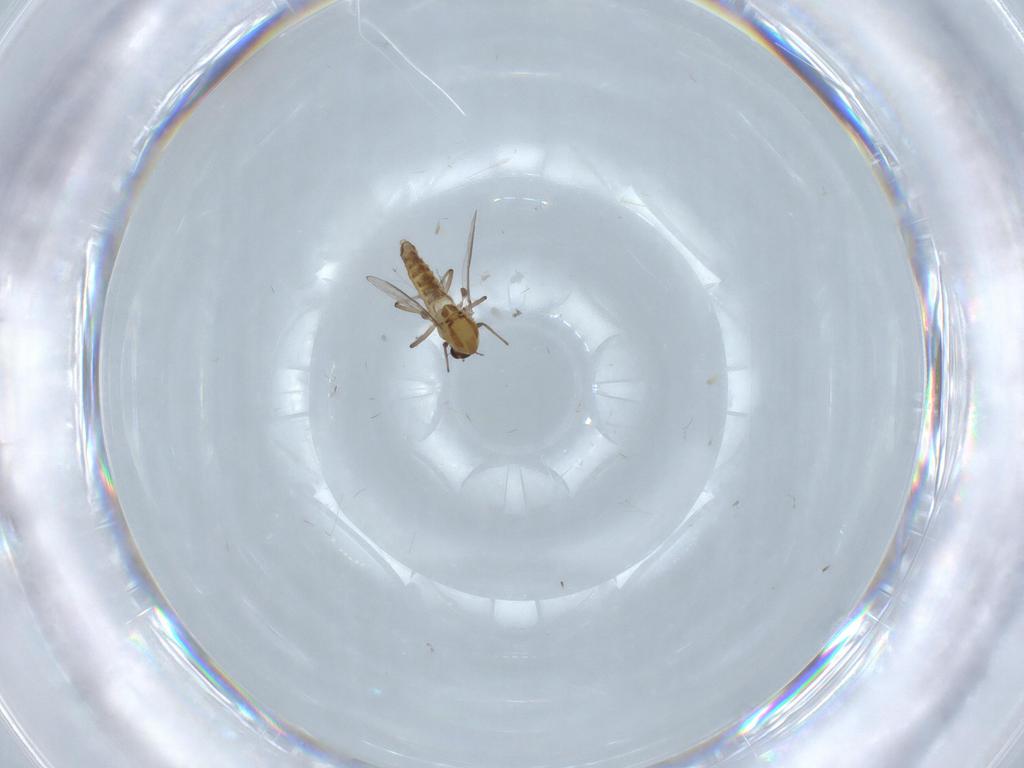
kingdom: Animalia
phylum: Arthropoda
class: Insecta
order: Diptera
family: Chironomidae
